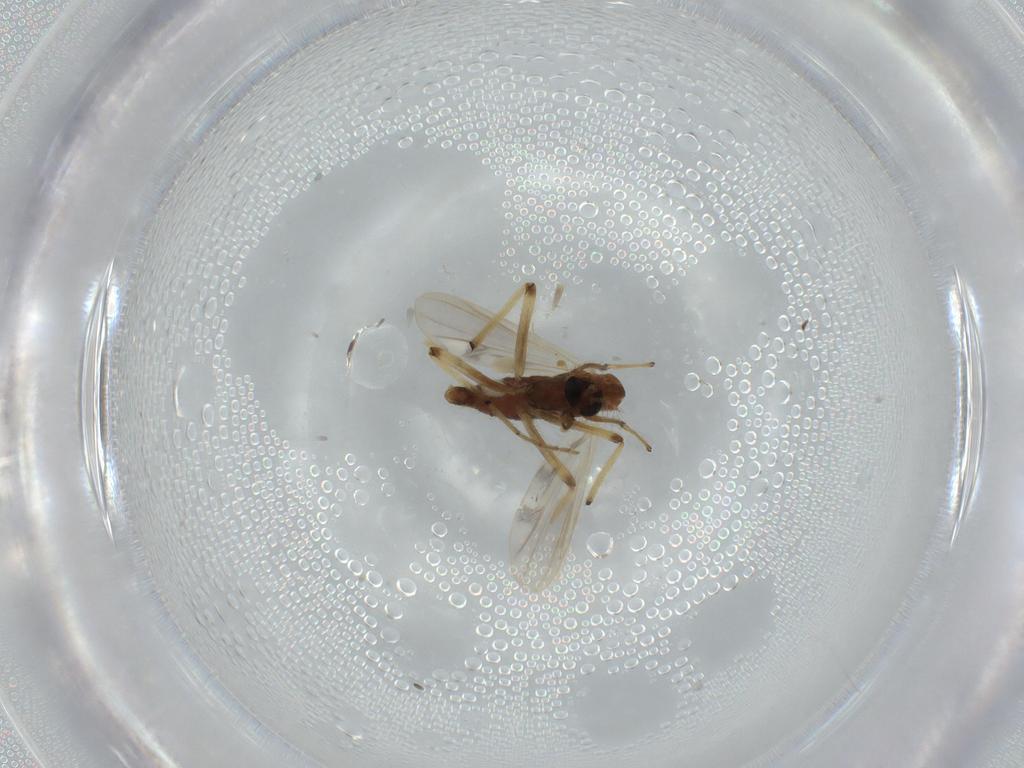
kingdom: Animalia
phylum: Arthropoda
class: Insecta
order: Diptera
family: Chironomidae
